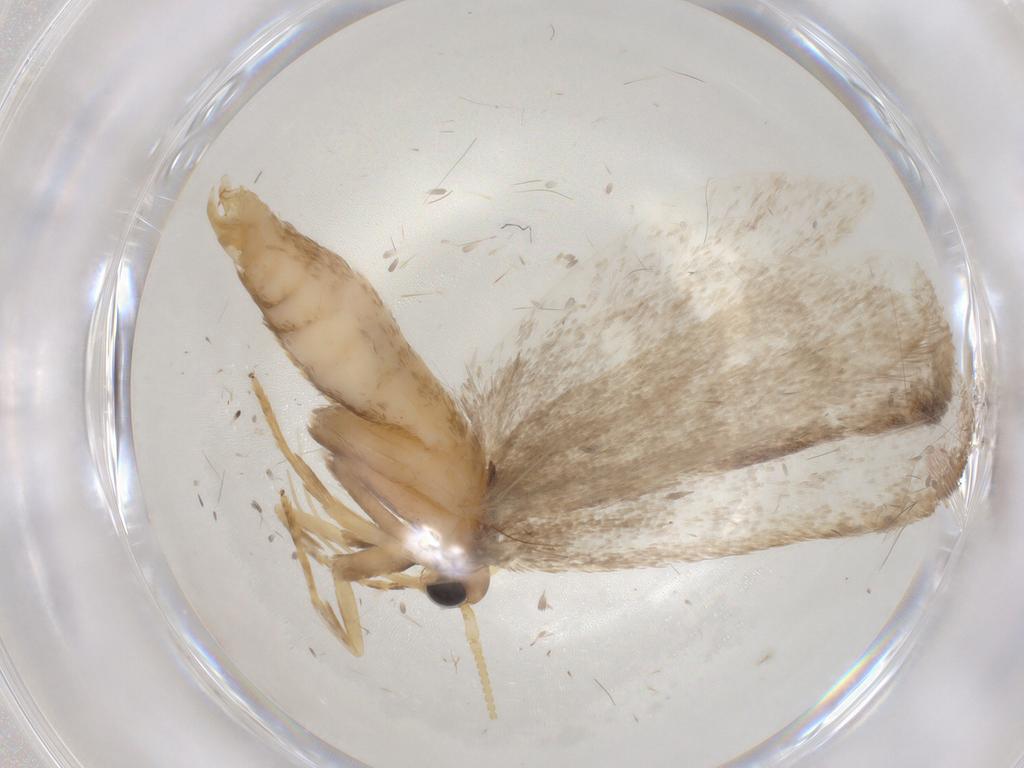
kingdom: Animalia
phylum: Arthropoda
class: Insecta
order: Lepidoptera
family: Lecithoceridae
